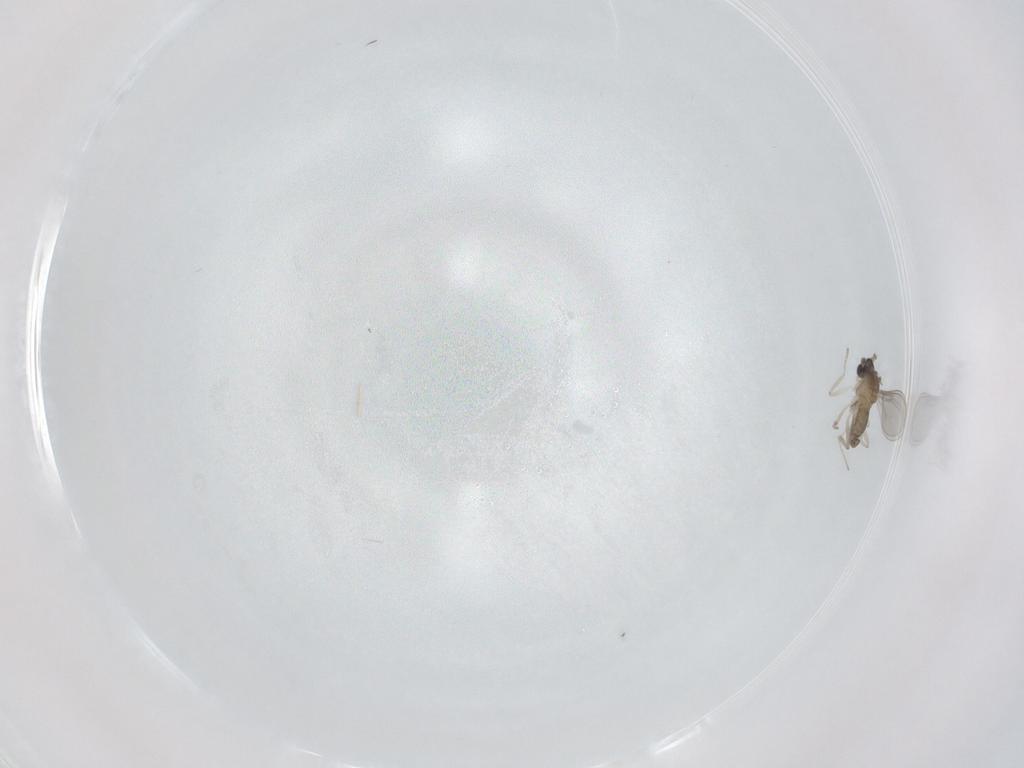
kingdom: Animalia
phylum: Arthropoda
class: Insecta
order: Diptera
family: Cecidomyiidae
